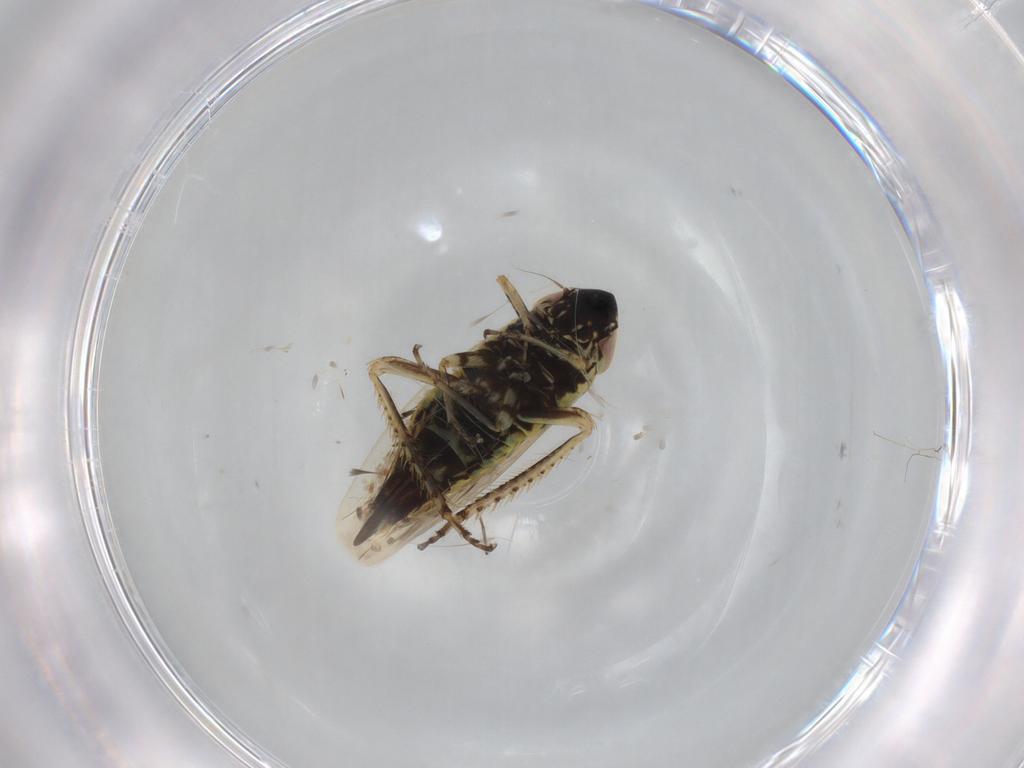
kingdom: Animalia
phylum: Arthropoda
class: Insecta
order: Hemiptera
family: Cicadellidae
